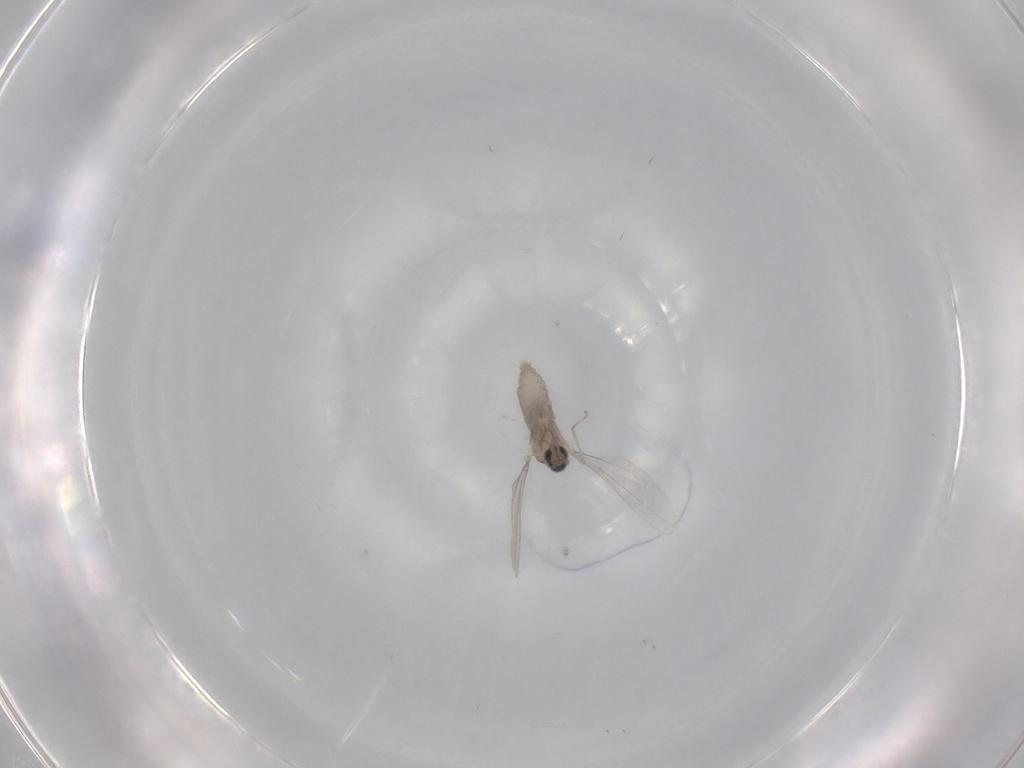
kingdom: Animalia
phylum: Arthropoda
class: Insecta
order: Diptera
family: Cecidomyiidae
